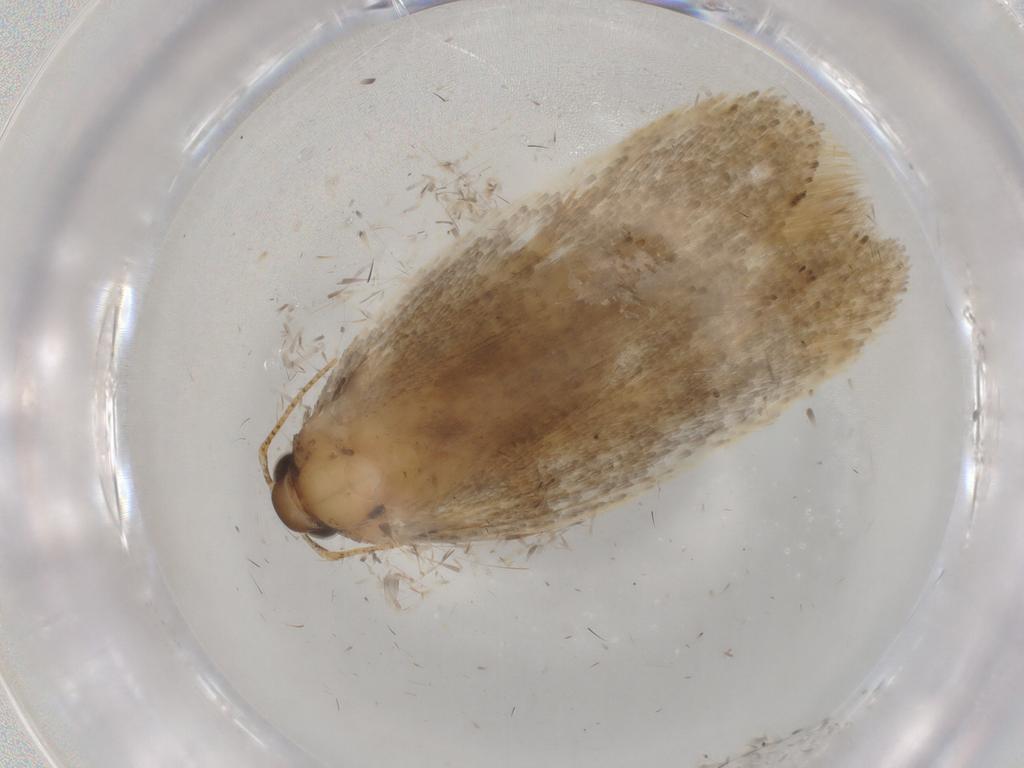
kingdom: Animalia
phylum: Arthropoda
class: Insecta
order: Lepidoptera
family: Gelechiidae
